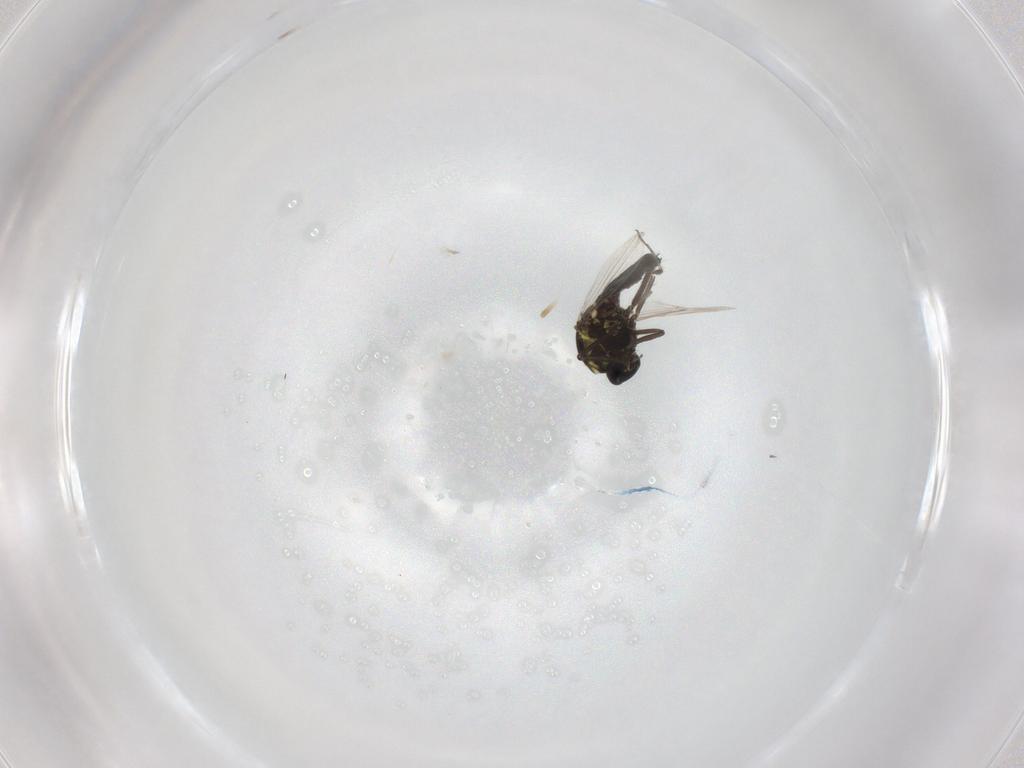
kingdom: Animalia
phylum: Arthropoda
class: Insecta
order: Diptera
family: Ceratopogonidae
